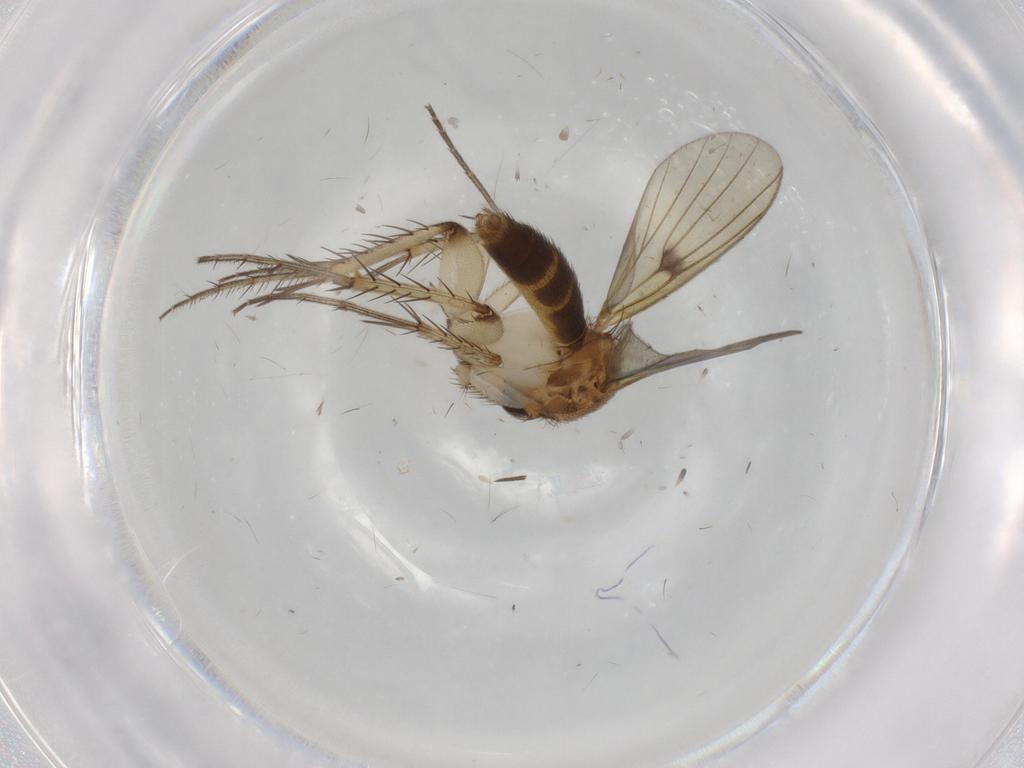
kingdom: Animalia
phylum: Arthropoda
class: Insecta
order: Diptera
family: Phoridae
